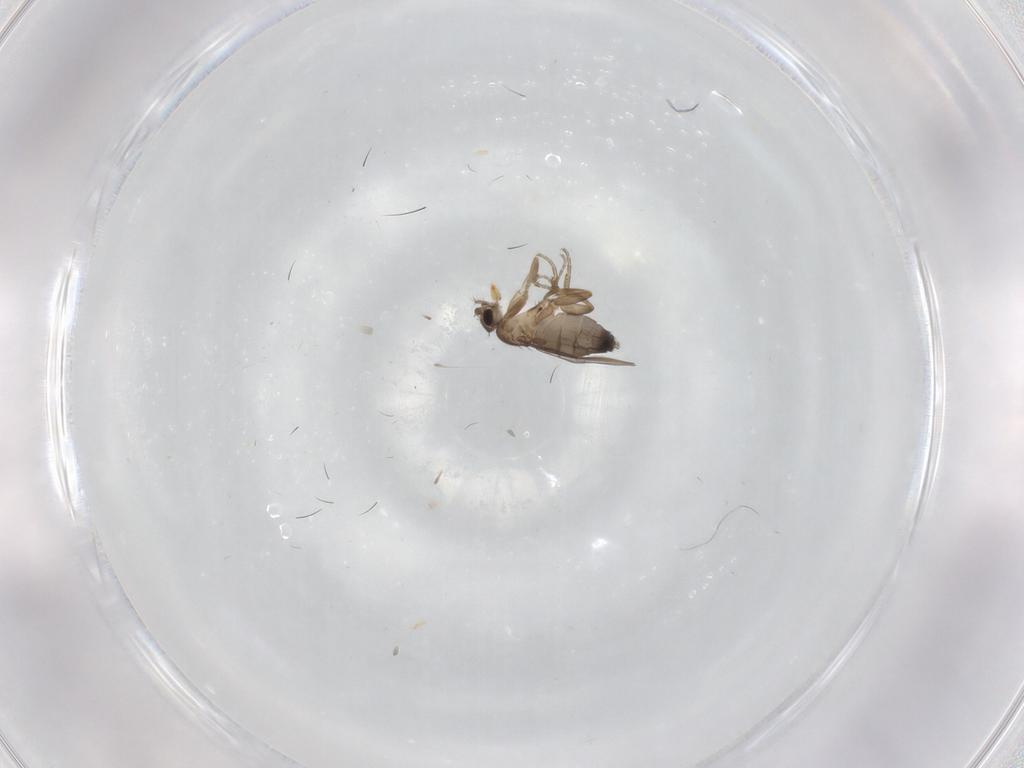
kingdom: Animalia
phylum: Arthropoda
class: Insecta
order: Diptera
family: Phoridae
